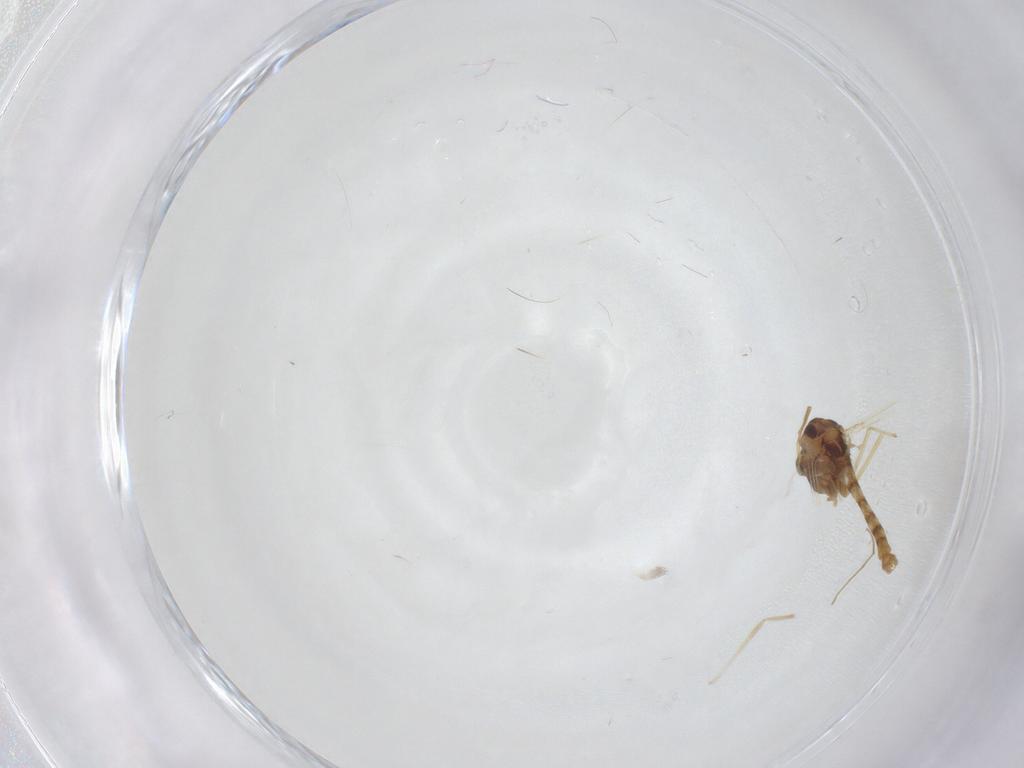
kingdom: Animalia
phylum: Arthropoda
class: Insecta
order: Diptera
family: Chironomidae
